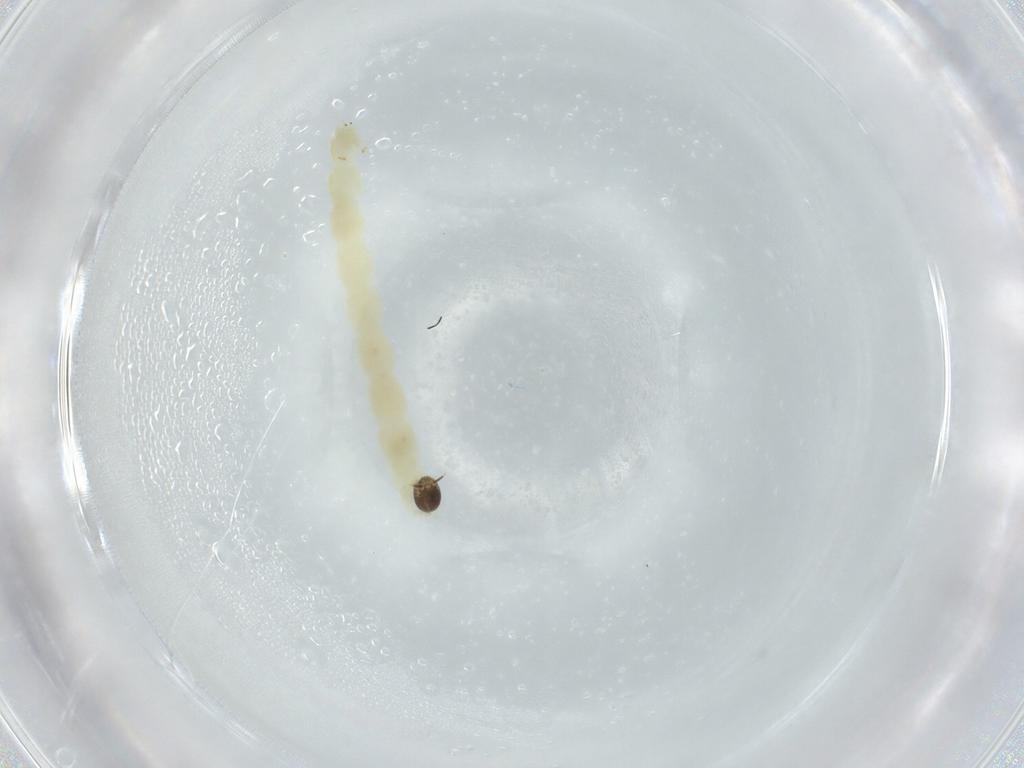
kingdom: Animalia
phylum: Arthropoda
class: Insecta
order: Diptera
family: Chironomidae
